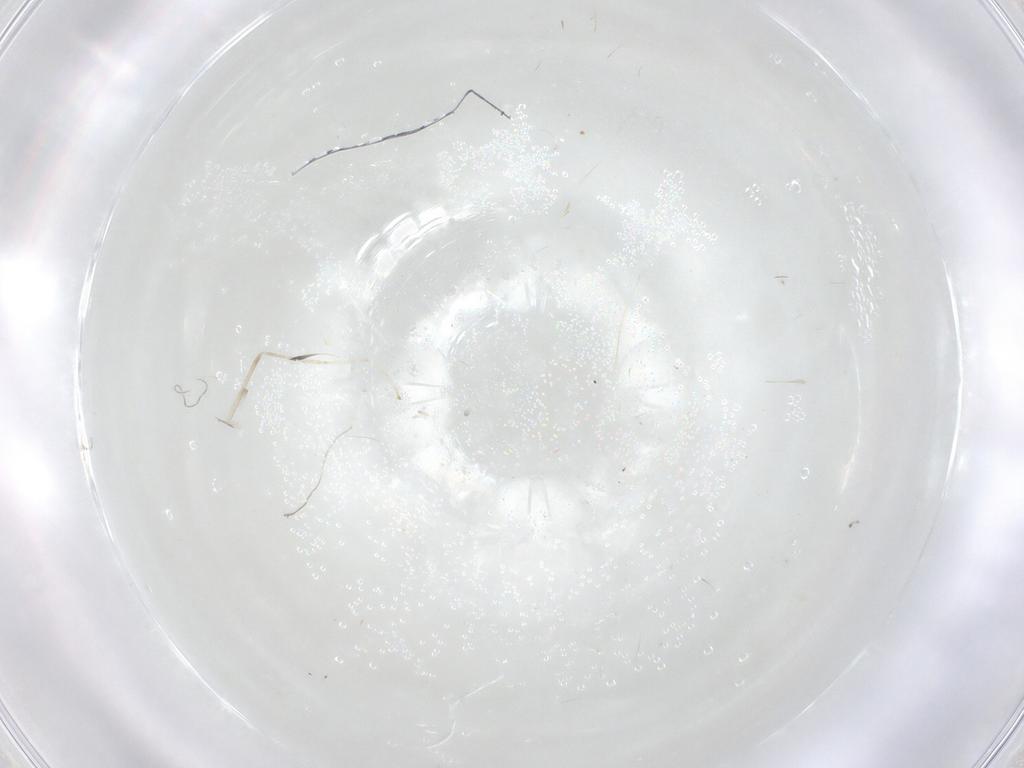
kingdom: Animalia
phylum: Arthropoda
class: Insecta
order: Diptera
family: Cecidomyiidae
